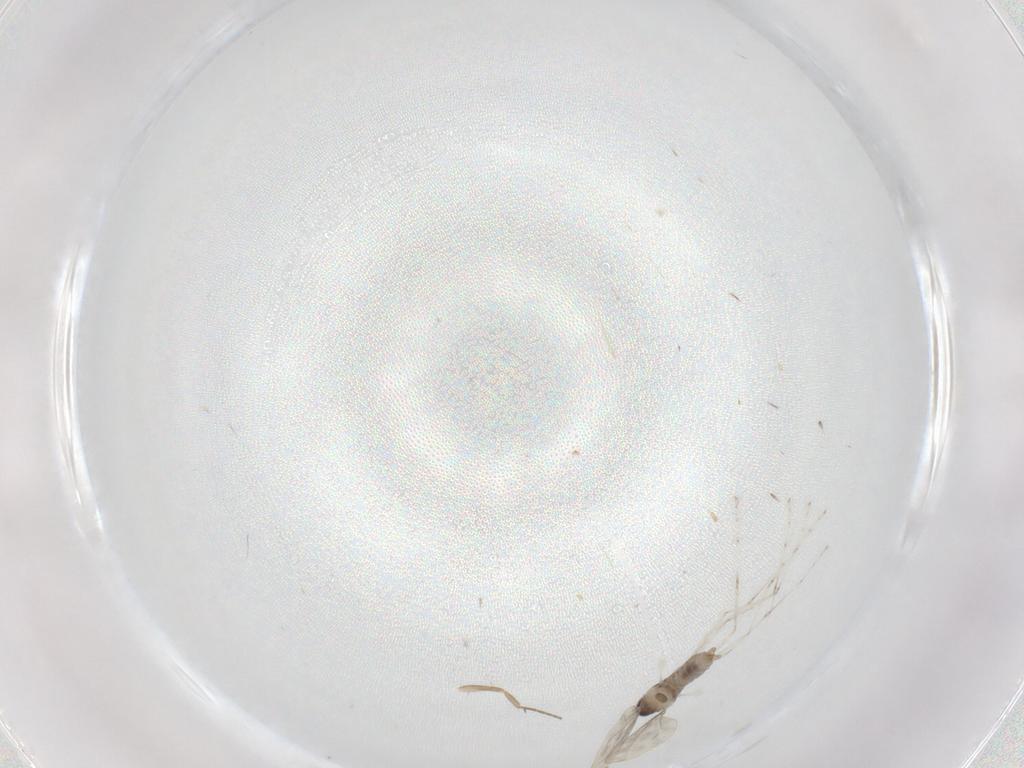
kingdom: Animalia
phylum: Arthropoda
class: Insecta
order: Diptera
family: Cecidomyiidae
